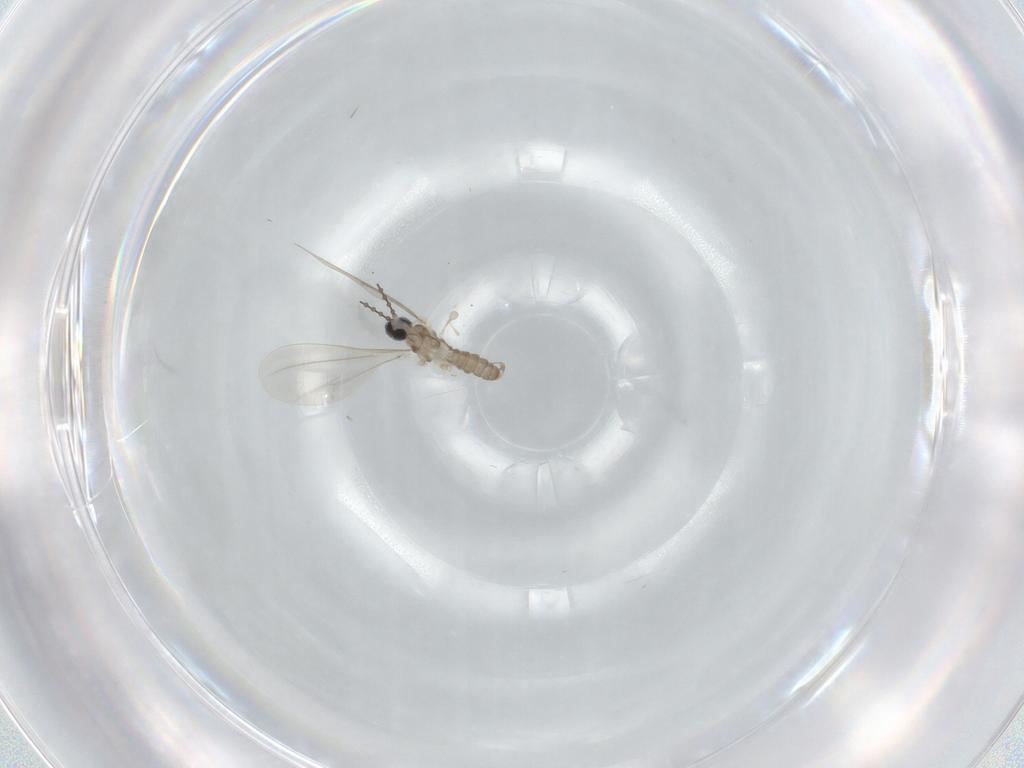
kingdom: Animalia
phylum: Arthropoda
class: Insecta
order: Diptera
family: Cecidomyiidae
